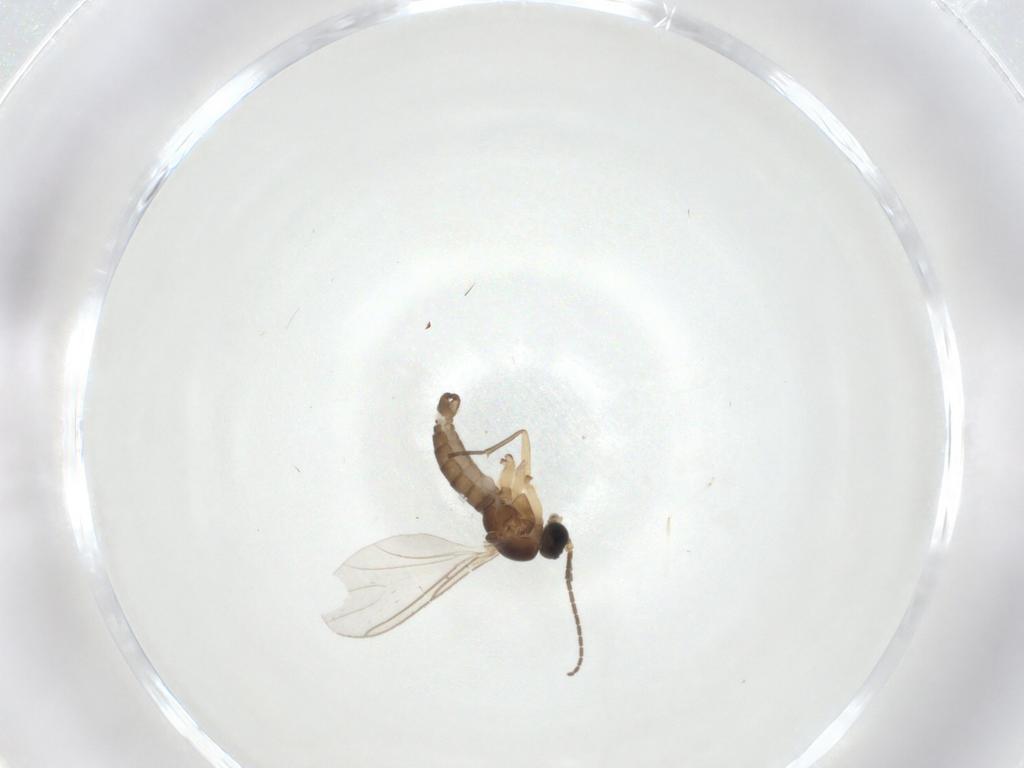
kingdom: Animalia
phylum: Arthropoda
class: Insecta
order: Diptera
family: Sciaridae
